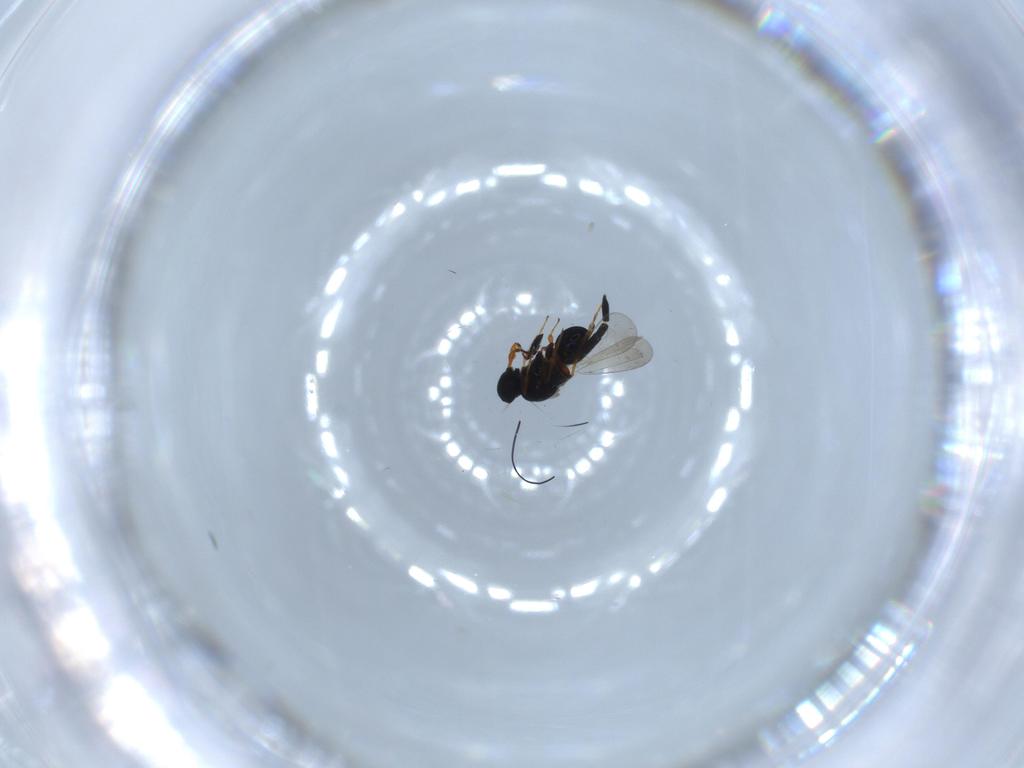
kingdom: Animalia
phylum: Arthropoda
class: Insecta
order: Hymenoptera
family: Platygastridae
